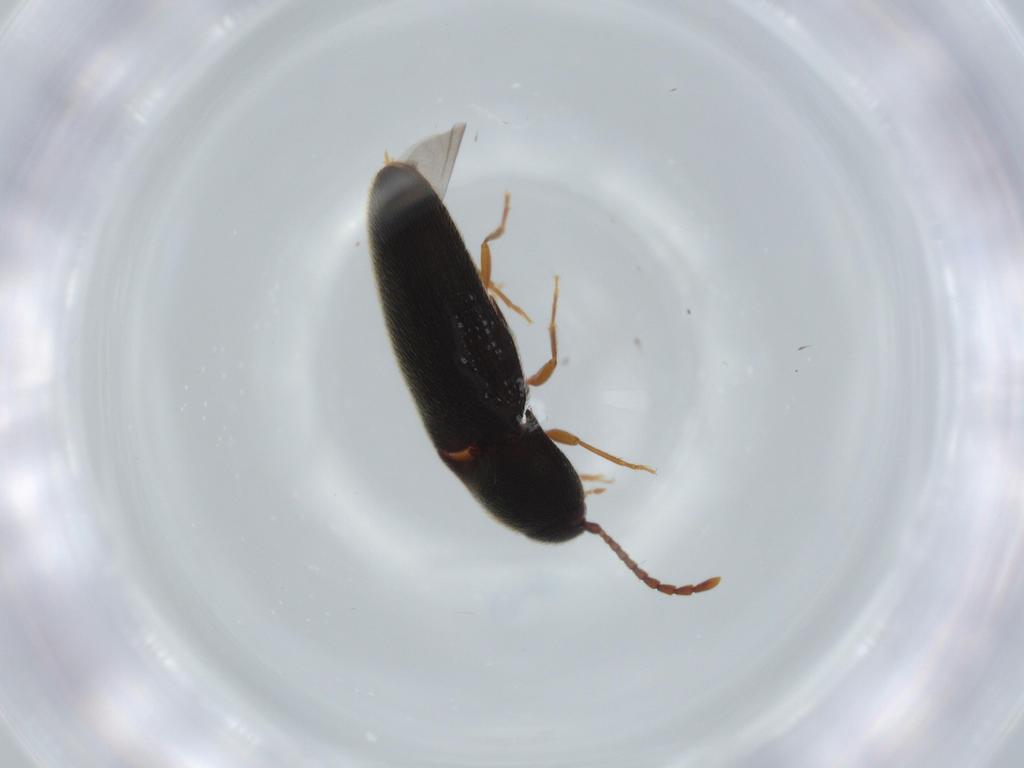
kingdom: Animalia
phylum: Arthropoda
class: Insecta
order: Coleoptera
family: Elateridae
